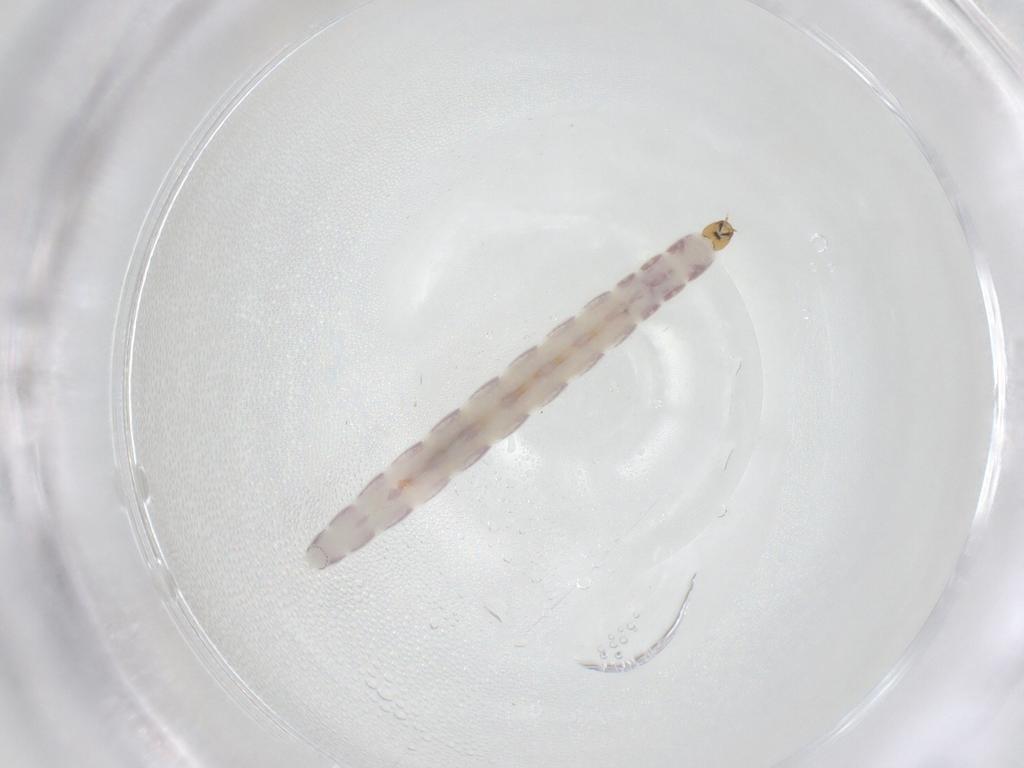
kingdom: Animalia
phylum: Arthropoda
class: Insecta
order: Diptera
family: Chironomidae
